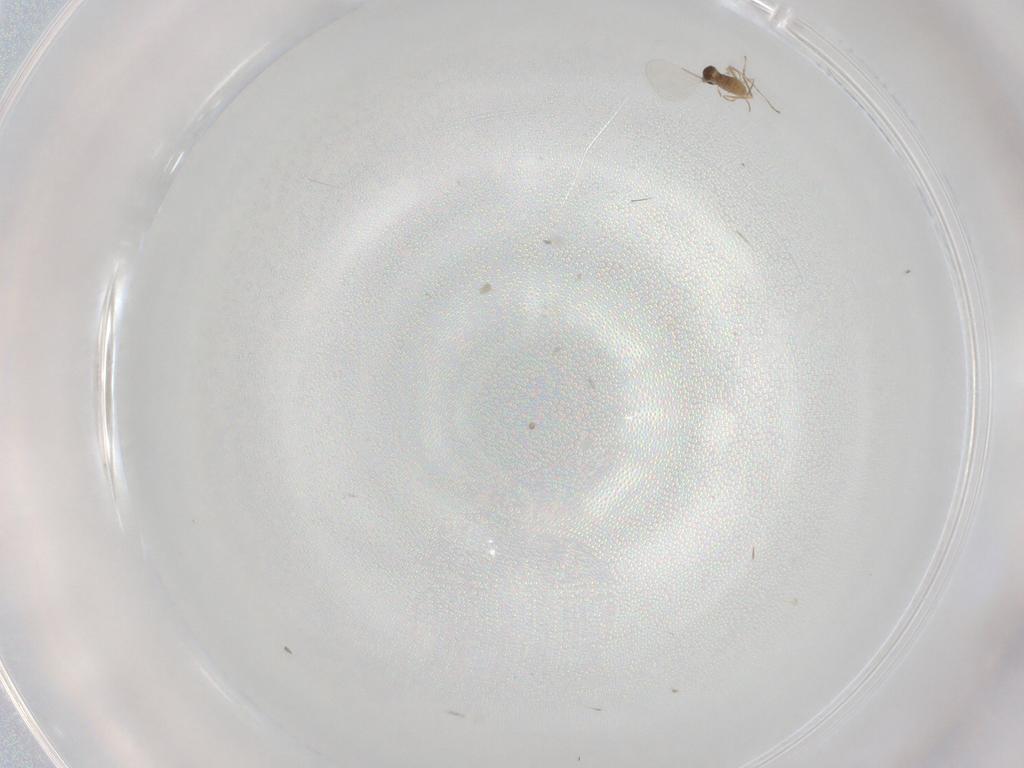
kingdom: Animalia
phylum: Arthropoda
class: Insecta
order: Diptera
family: Cecidomyiidae
